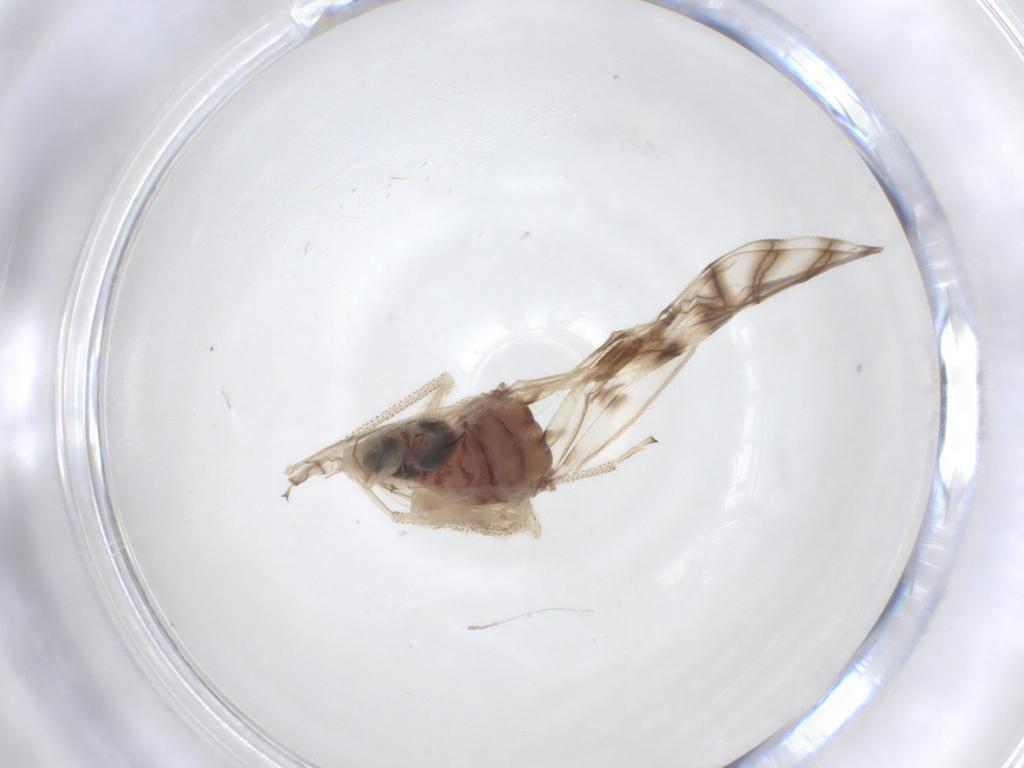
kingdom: Animalia
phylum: Arthropoda
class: Insecta
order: Psocodea
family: Amphipsocidae
